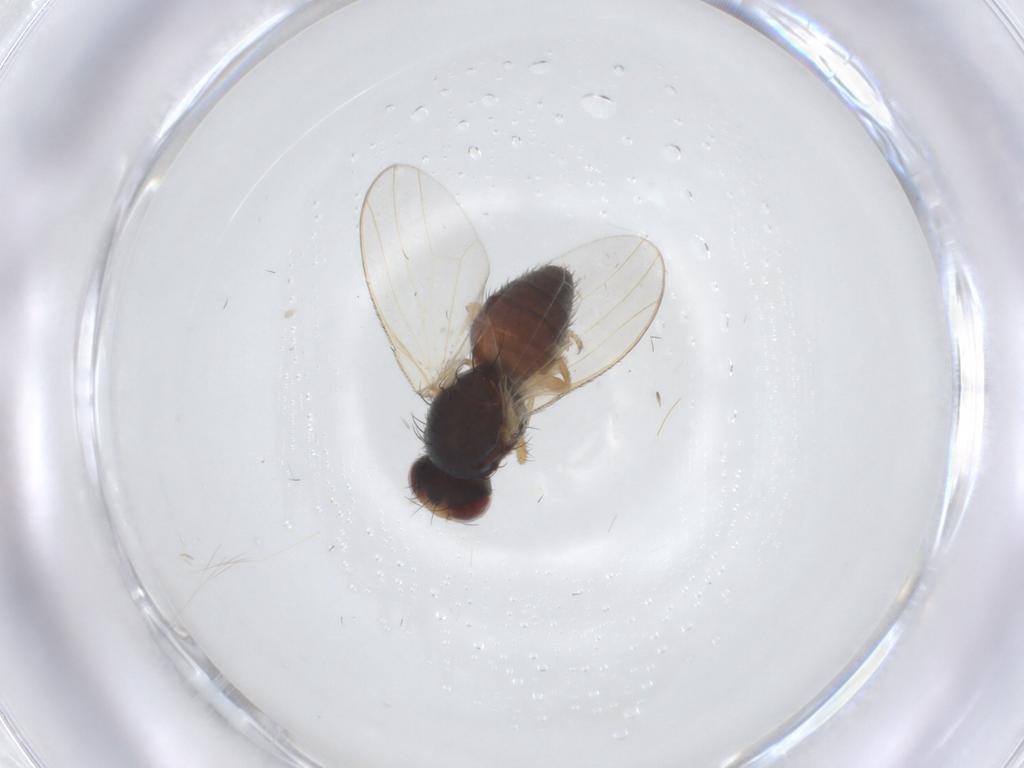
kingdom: Animalia
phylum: Arthropoda
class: Insecta
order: Diptera
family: Heleomyzidae
